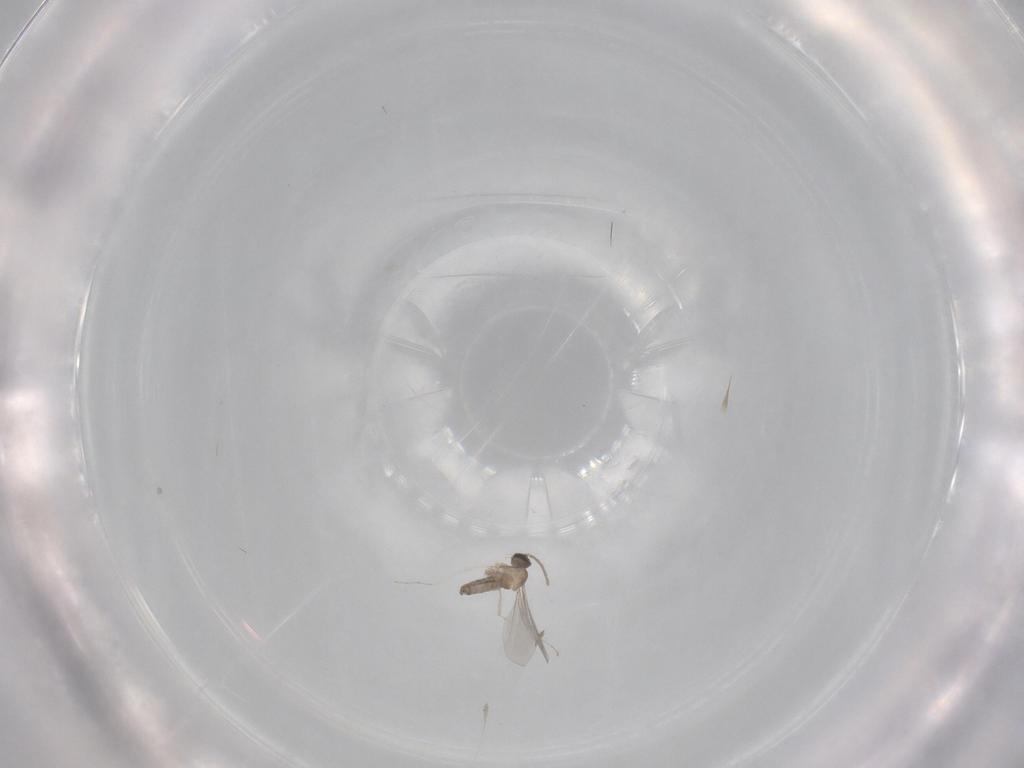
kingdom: Animalia
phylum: Arthropoda
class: Insecta
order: Diptera
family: Cecidomyiidae
